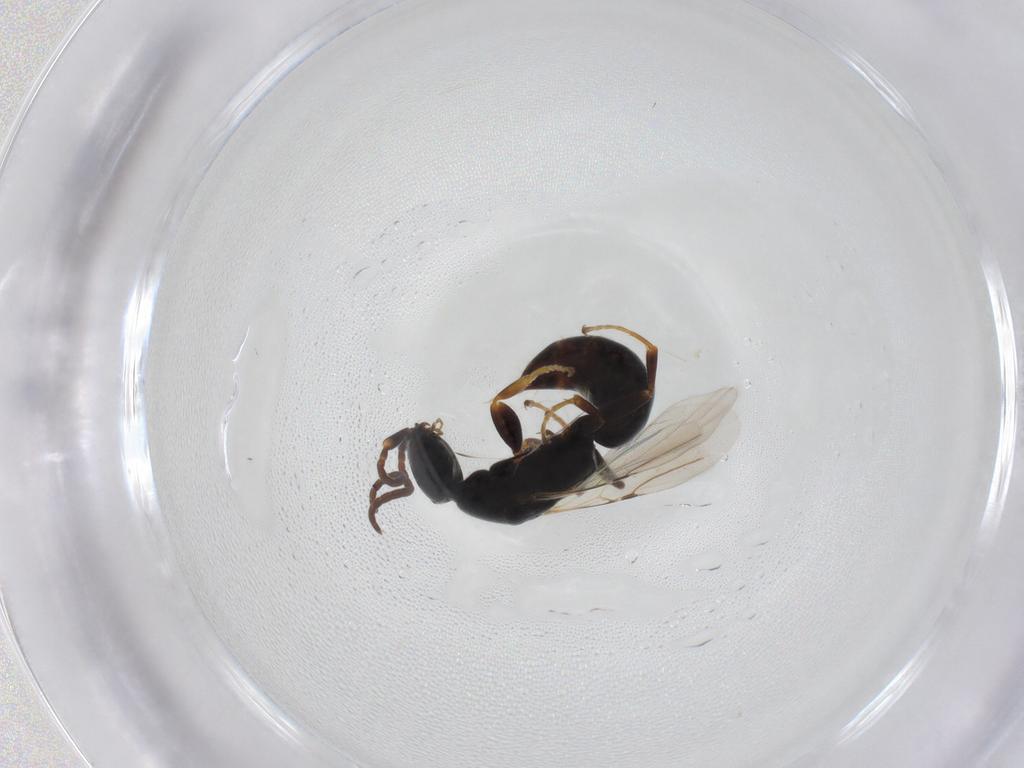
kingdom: Animalia
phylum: Arthropoda
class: Insecta
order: Hymenoptera
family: Bethylidae
